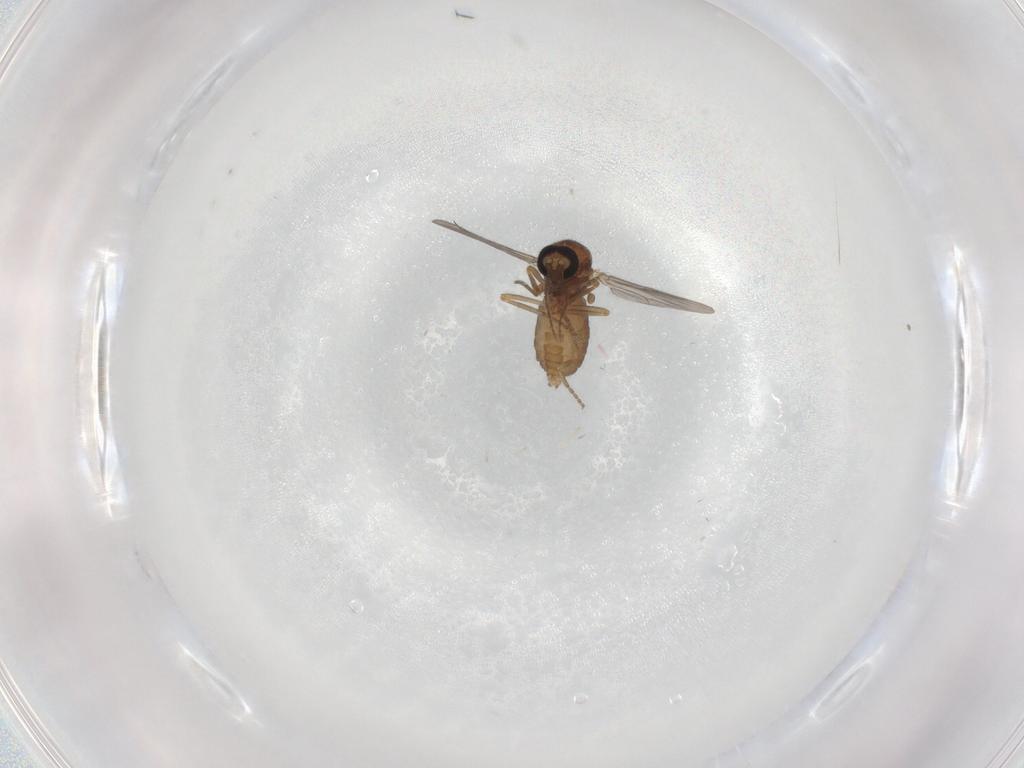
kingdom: Animalia
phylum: Arthropoda
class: Insecta
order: Diptera
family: Ceratopogonidae
